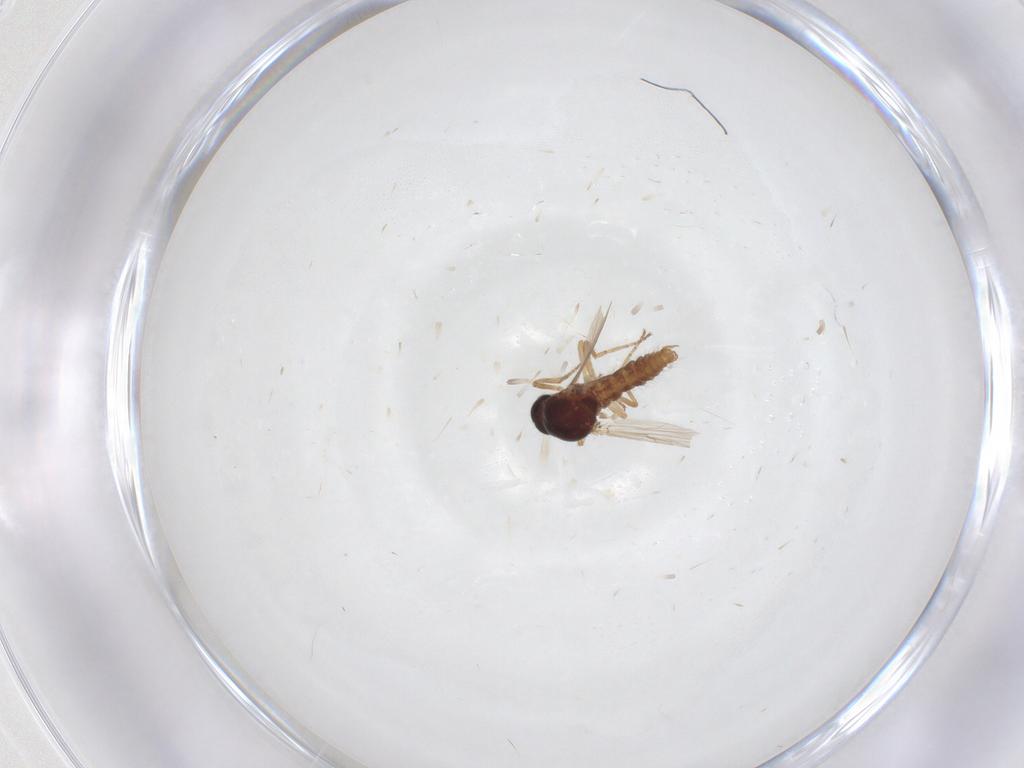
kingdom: Animalia
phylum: Arthropoda
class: Insecta
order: Diptera
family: Ceratopogonidae
